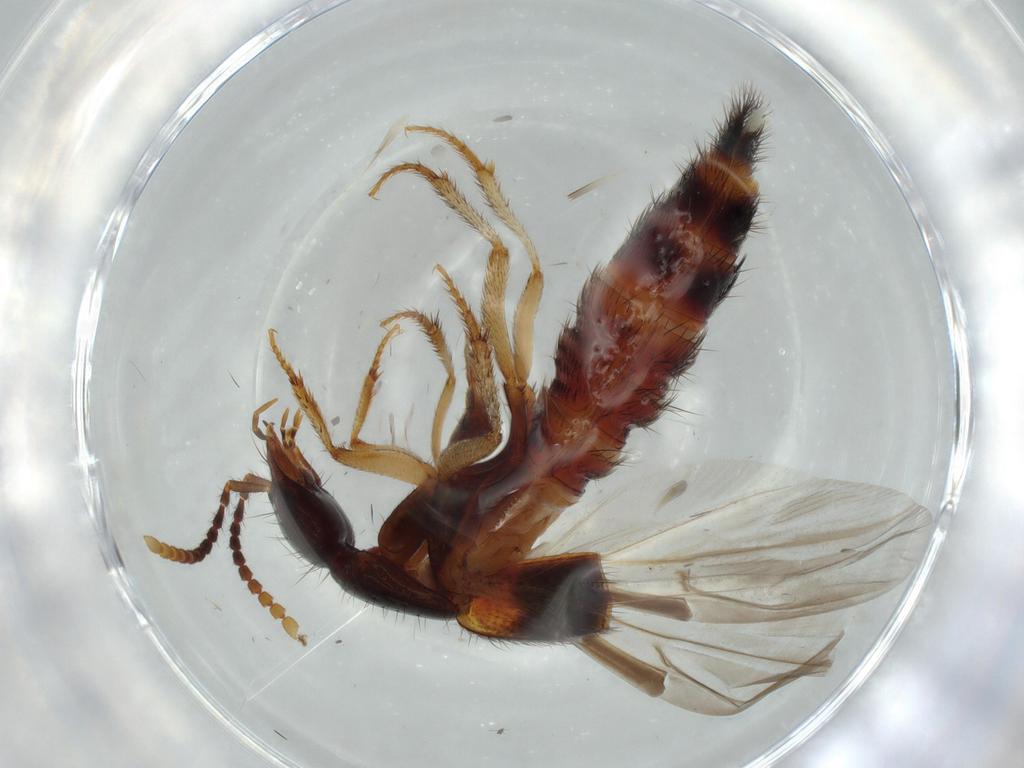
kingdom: Animalia
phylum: Arthropoda
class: Insecta
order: Coleoptera
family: Staphylinidae
